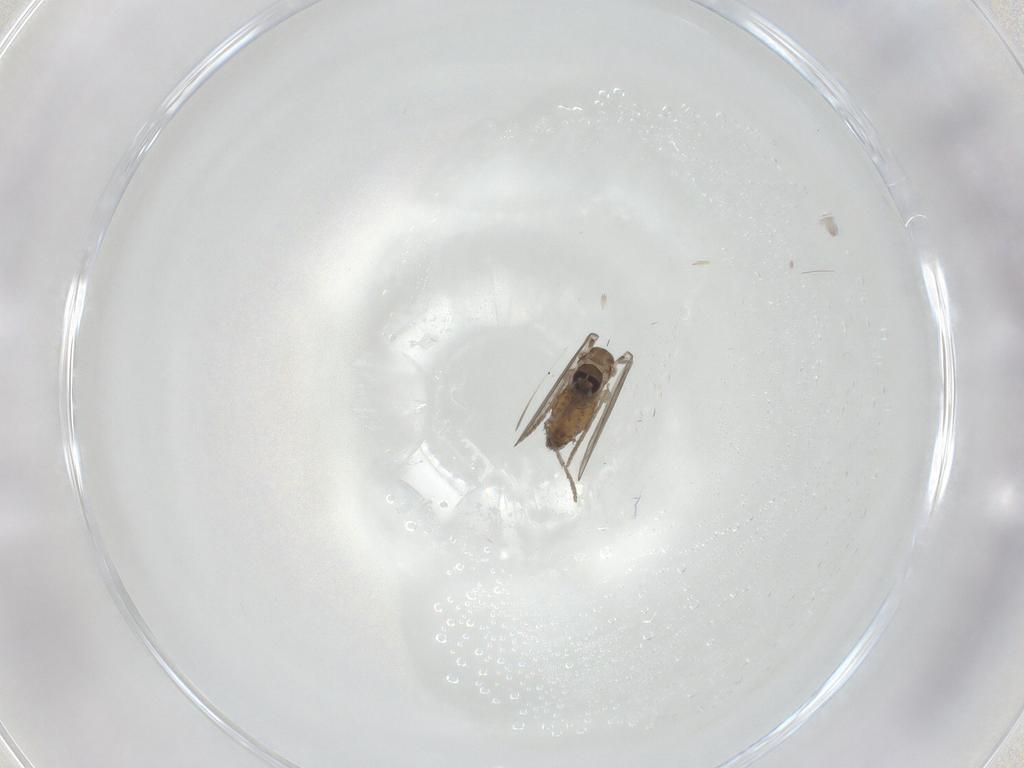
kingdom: Animalia
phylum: Arthropoda
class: Insecta
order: Diptera
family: Psychodidae
